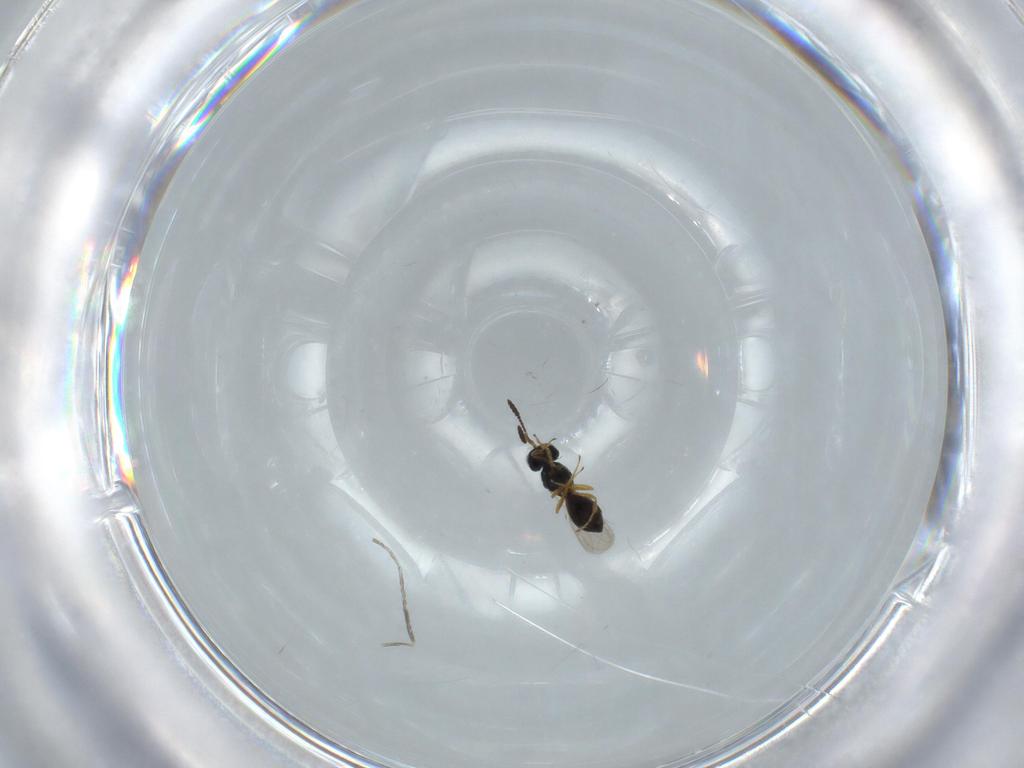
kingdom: Animalia
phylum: Arthropoda
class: Insecta
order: Hymenoptera
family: Scelionidae
